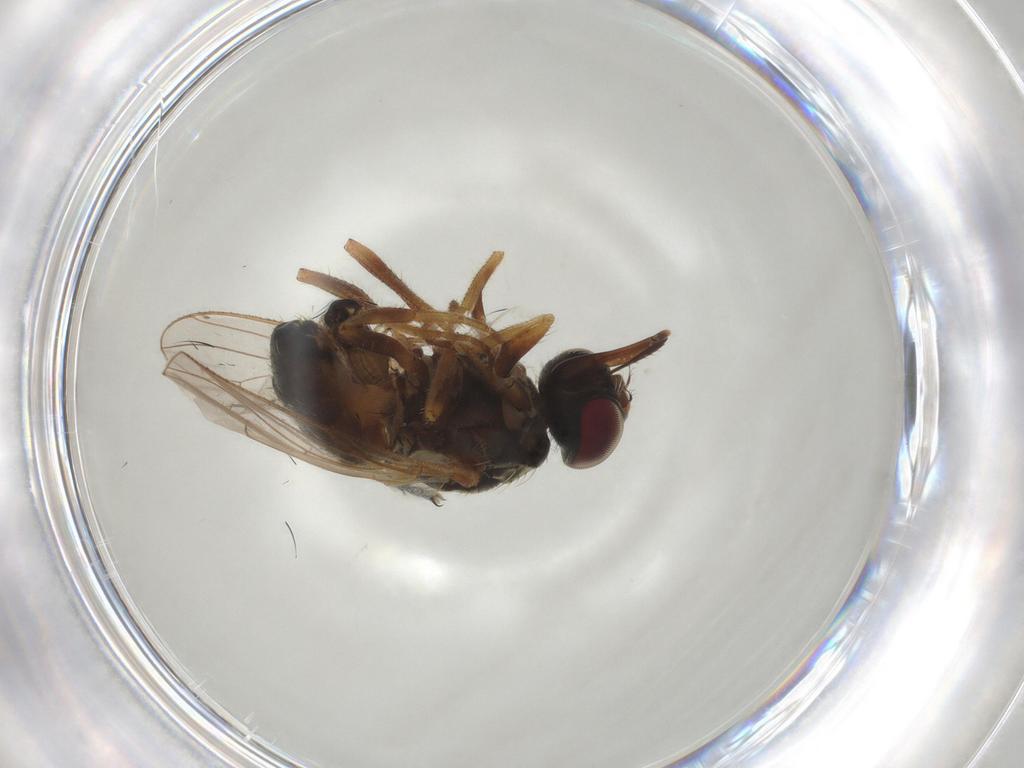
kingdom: Animalia
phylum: Arthropoda
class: Insecta
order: Diptera
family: Ceratopogonidae
